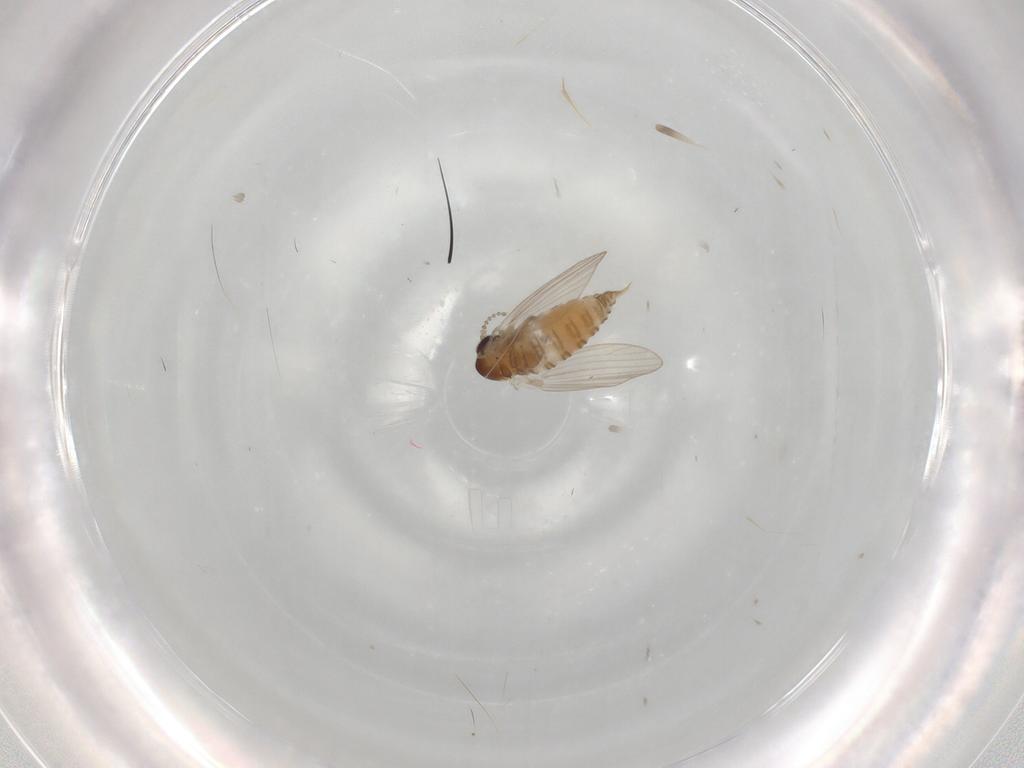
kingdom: Animalia
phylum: Arthropoda
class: Insecta
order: Diptera
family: Psychodidae
